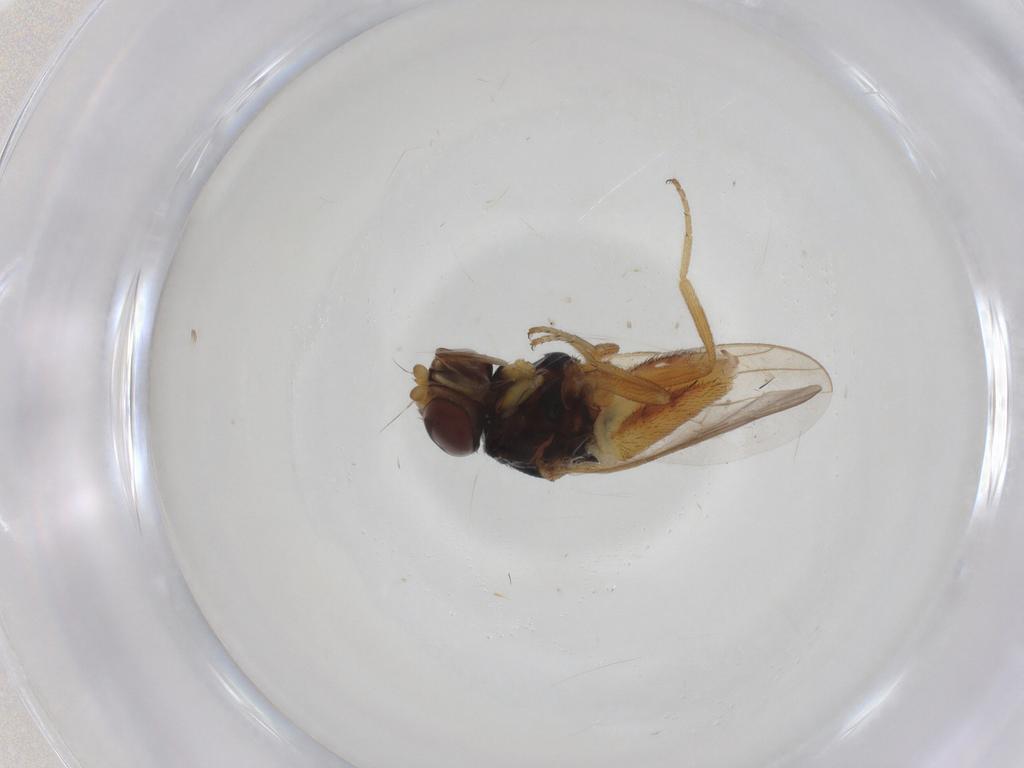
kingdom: Animalia
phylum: Arthropoda
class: Insecta
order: Diptera
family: Chloropidae
